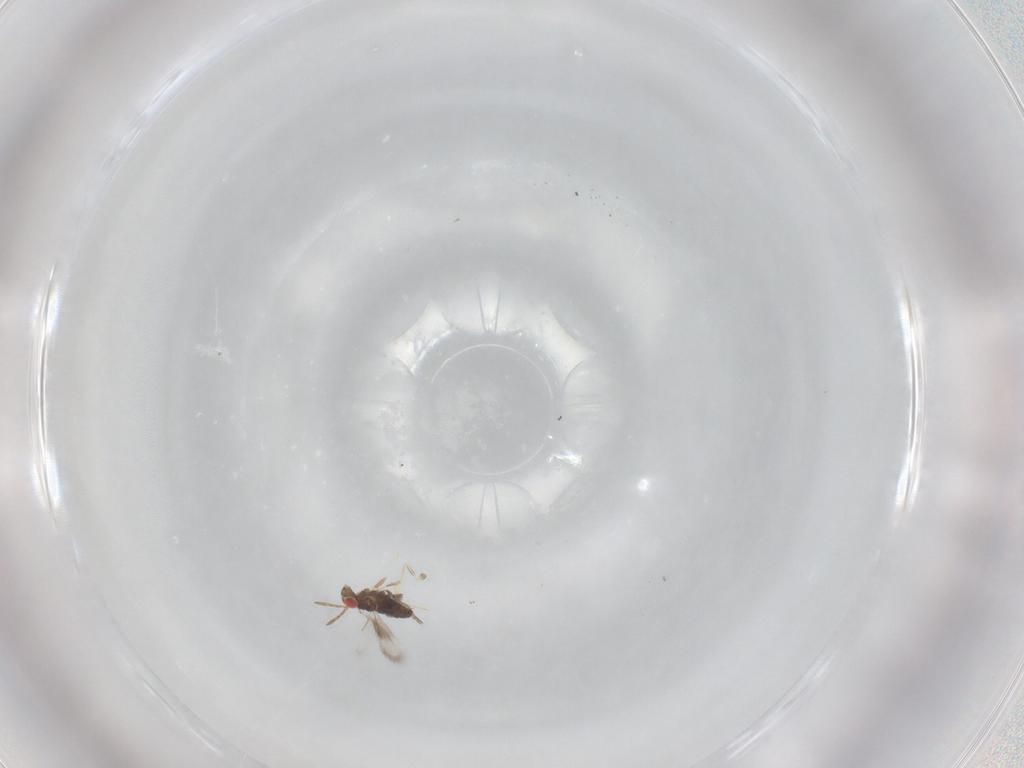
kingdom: Animalia
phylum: Arthropoda
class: Insecta
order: Hymenoptera
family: Azotidae
